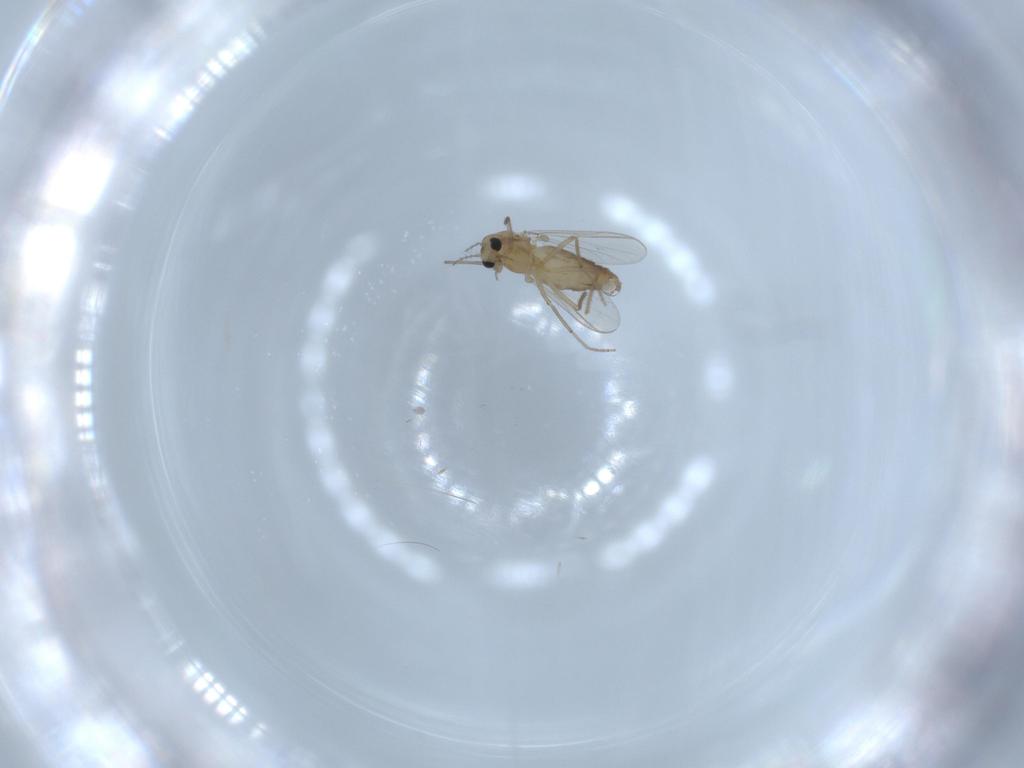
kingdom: Animalia
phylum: Arthropoda
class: Insecta
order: Diptera
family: Chironomidae
